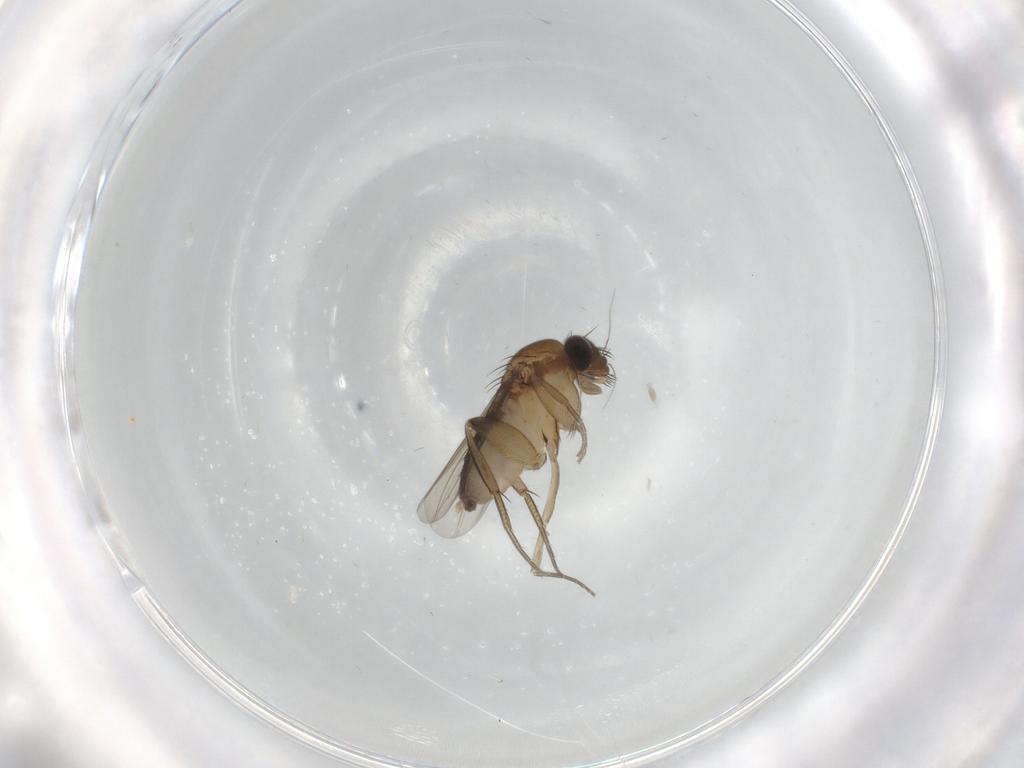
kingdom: Animalia
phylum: Arthropoda
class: Insecta
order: Diptera
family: Phoridae
